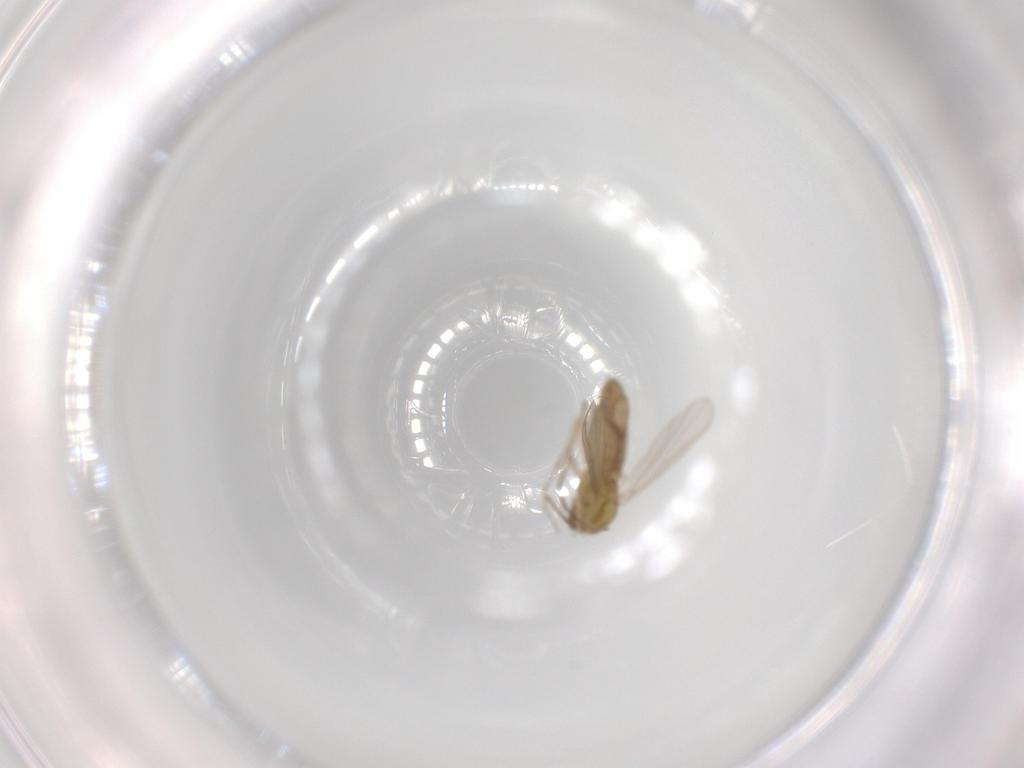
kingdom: Animalia
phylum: Arthropoda
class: Insecta
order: Diptera
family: Chironomidae
